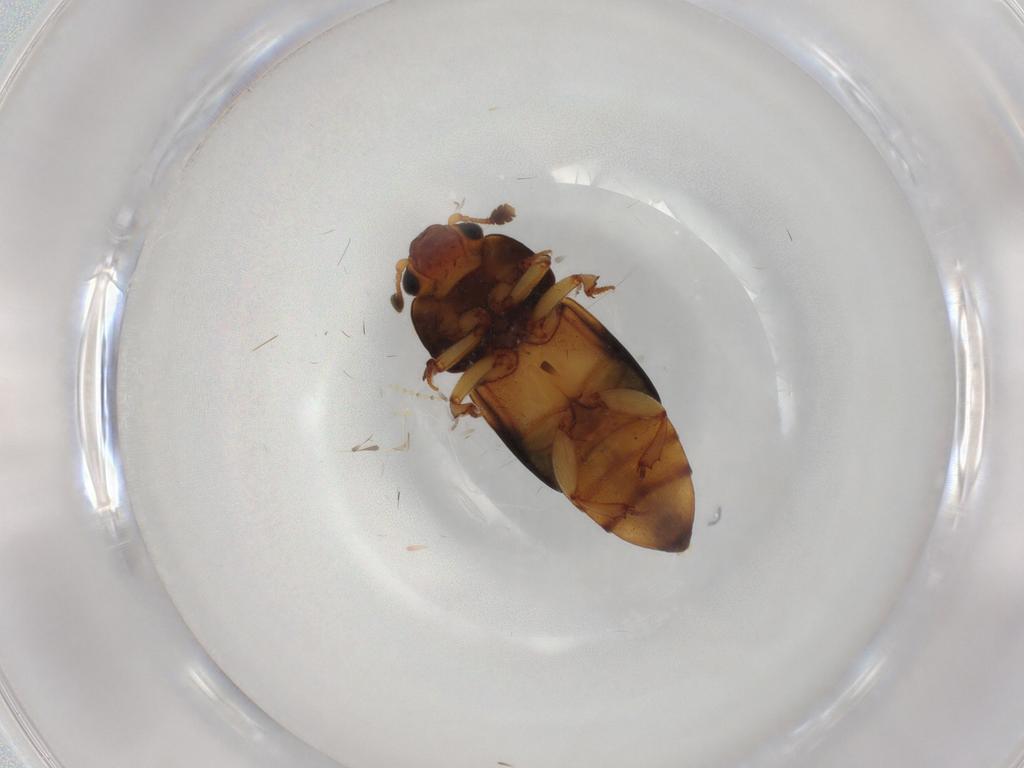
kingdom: Animalia
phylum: Arthropoda
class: Insecta
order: Coleoptera
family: Nitidulidae
